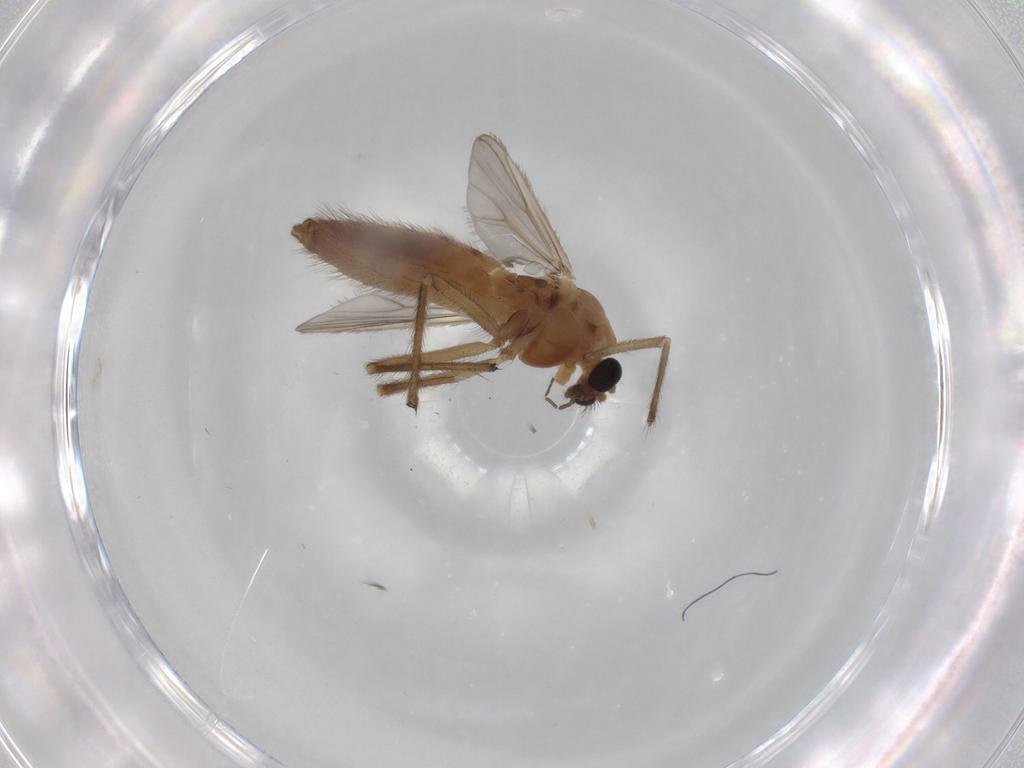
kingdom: Animalia
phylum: Arthropoda
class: Insecta
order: Diptera
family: Chironomidae
